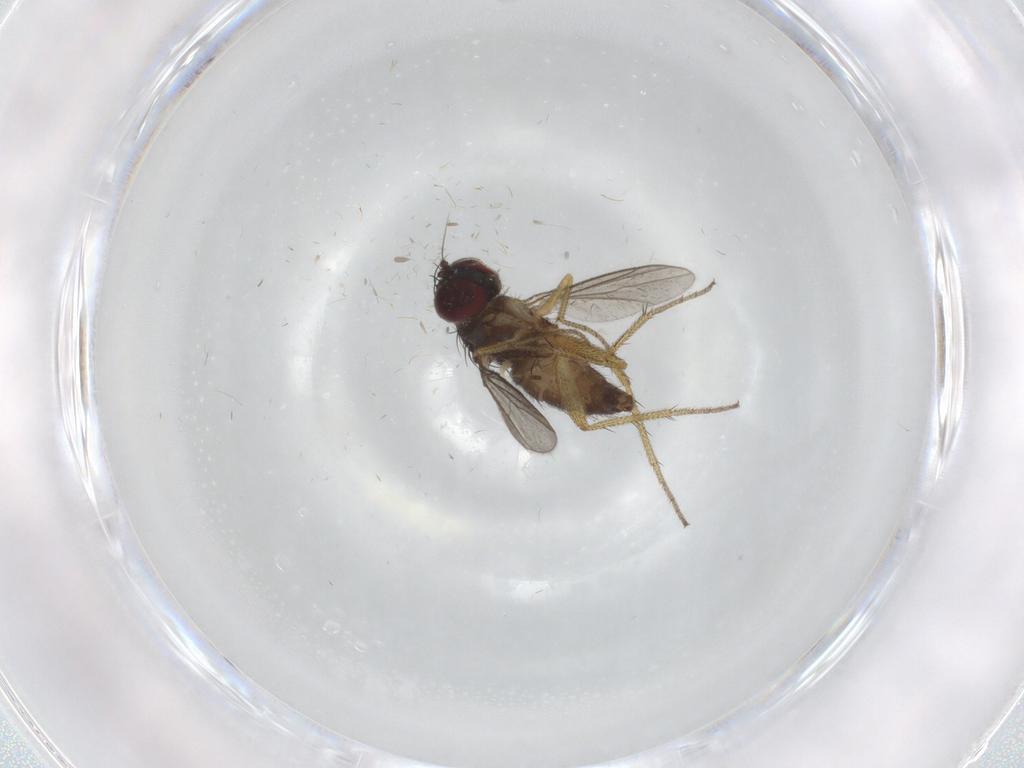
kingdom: Animalia
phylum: Arthropoda
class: Insecta
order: Diptera
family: Dolichopodidae
